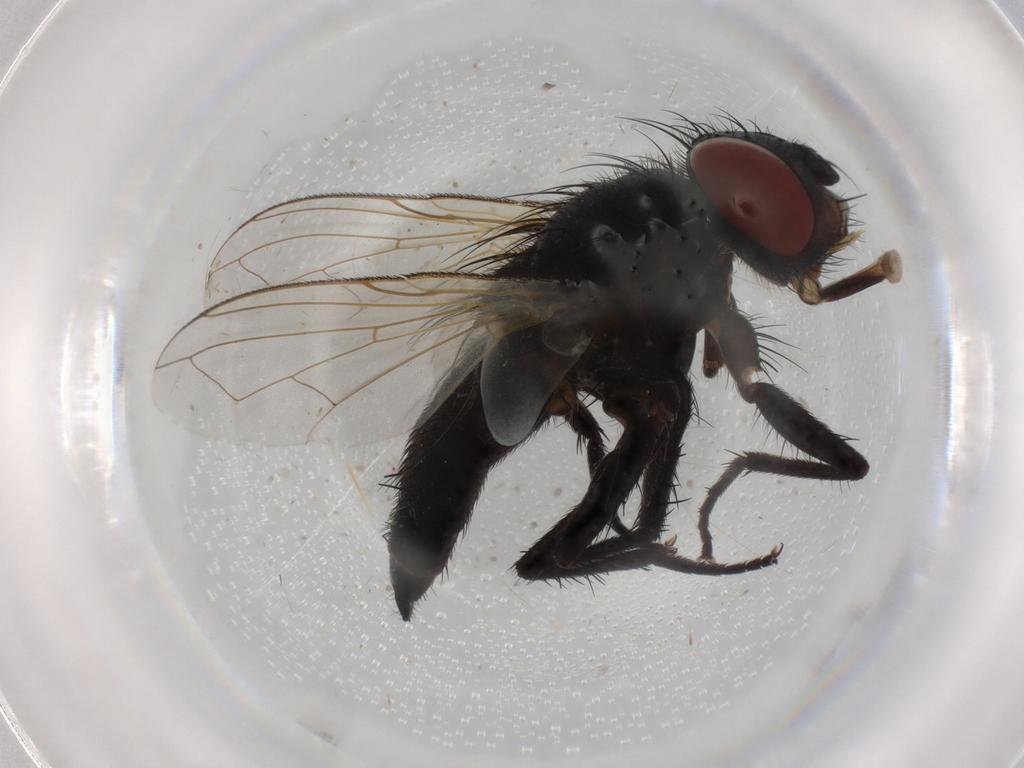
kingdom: Animalia
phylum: Arthropoda
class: Insecta
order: Diptera
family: Tachinidae
